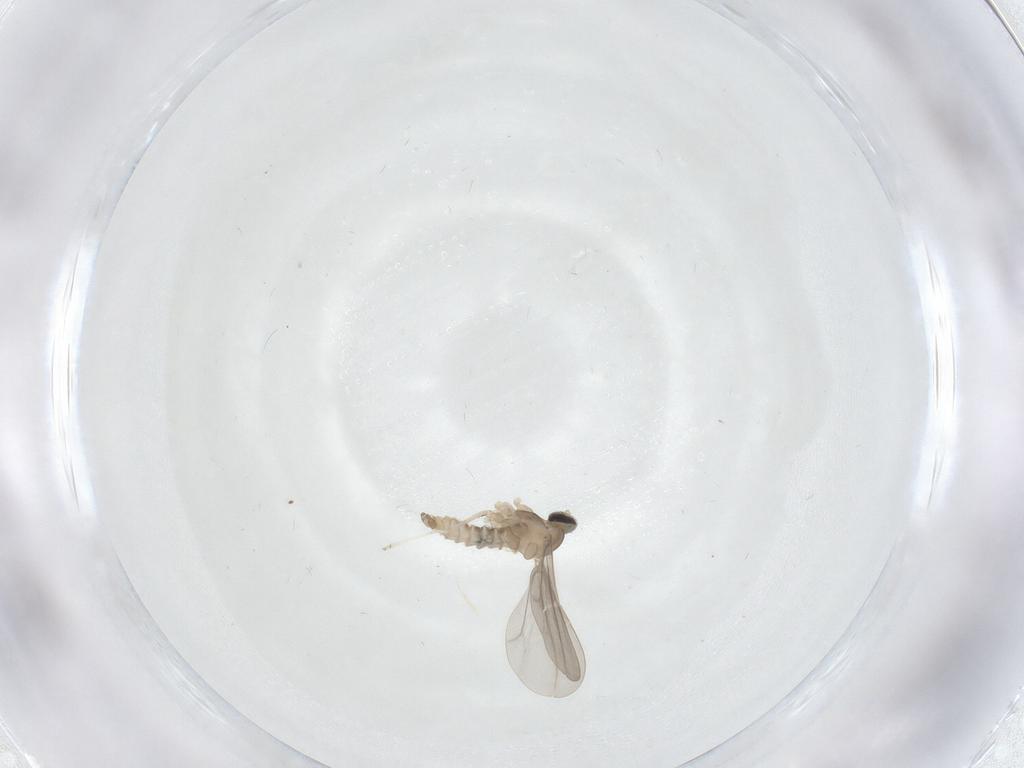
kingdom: Animalia
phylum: Arthropoda
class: Insecta
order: Diptera
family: Cecidomyiidae
